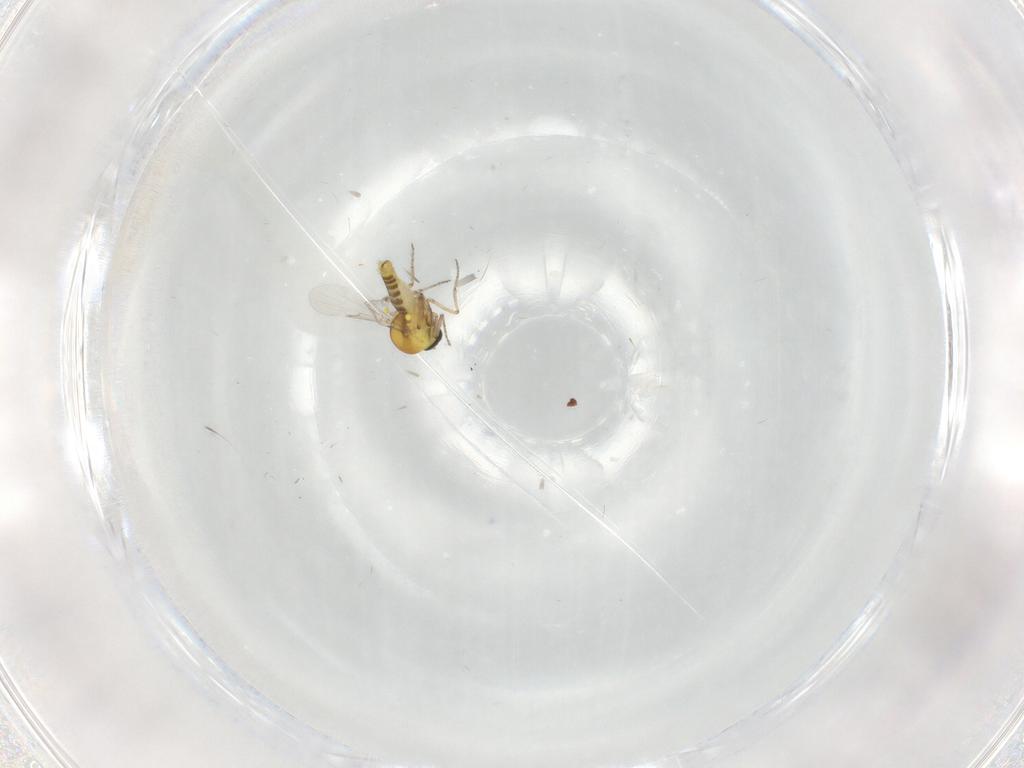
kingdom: Animalia
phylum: Arthropoda
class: Insecta
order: Diptera
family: Ceratopogonidae
